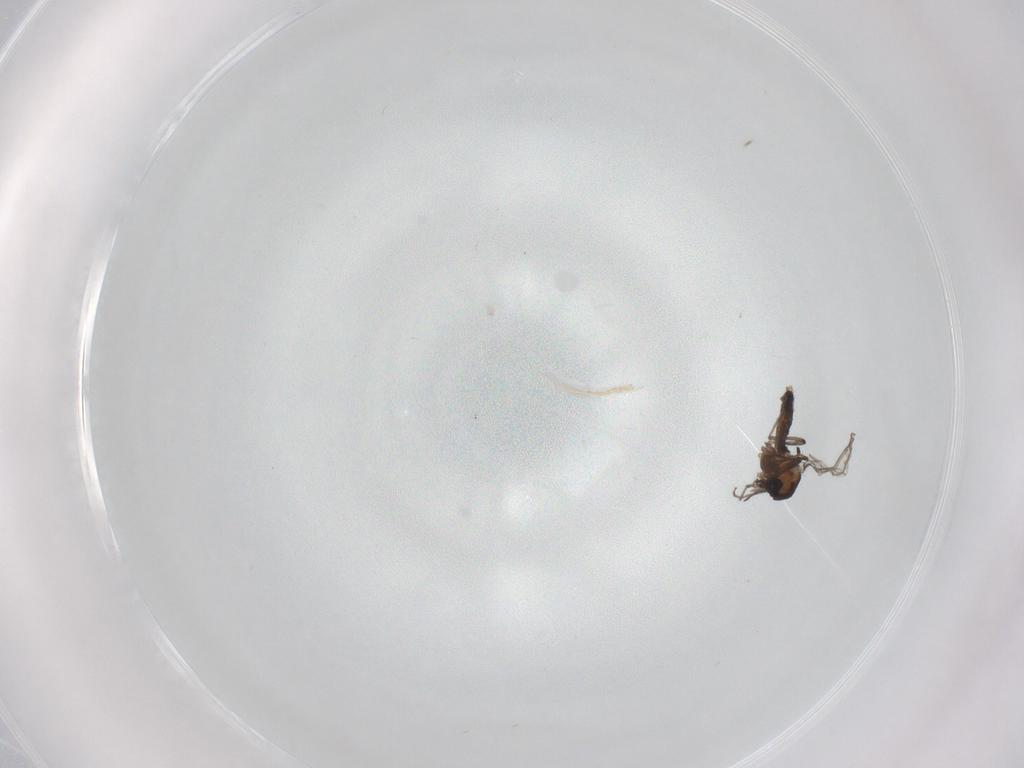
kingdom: Animalia
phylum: Arthropoda
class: Insecta
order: Diptera
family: Chironomidae
